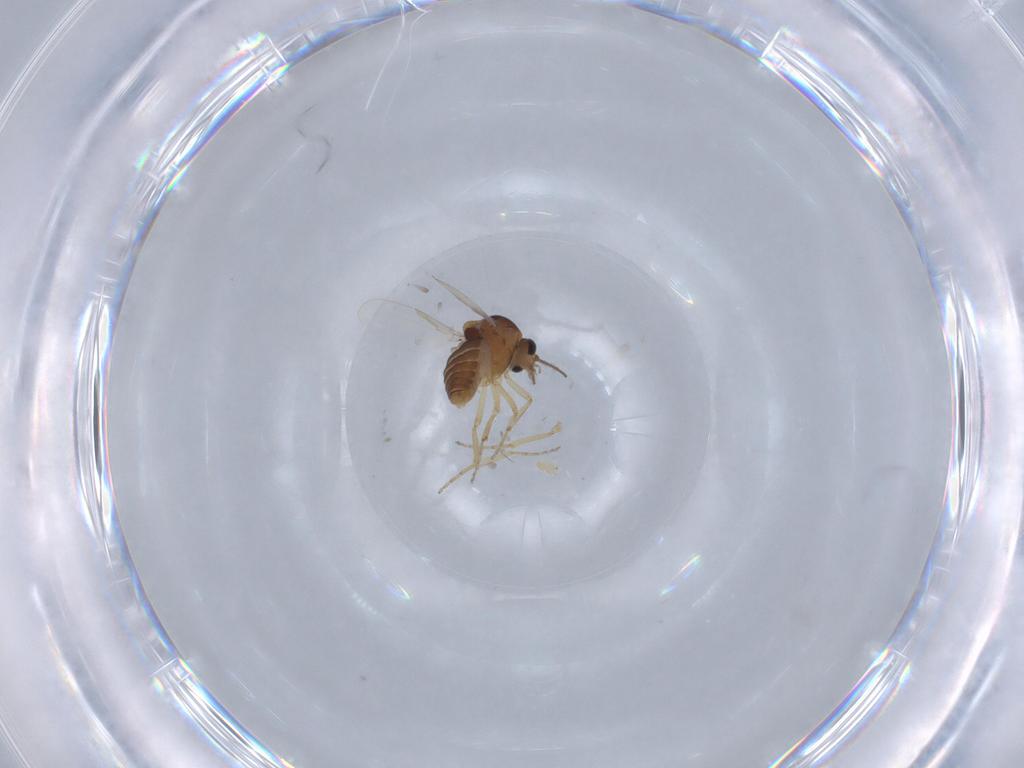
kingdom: Animalia
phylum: Arthropoda
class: Insecta
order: Diptera
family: Ceratopogonidae
